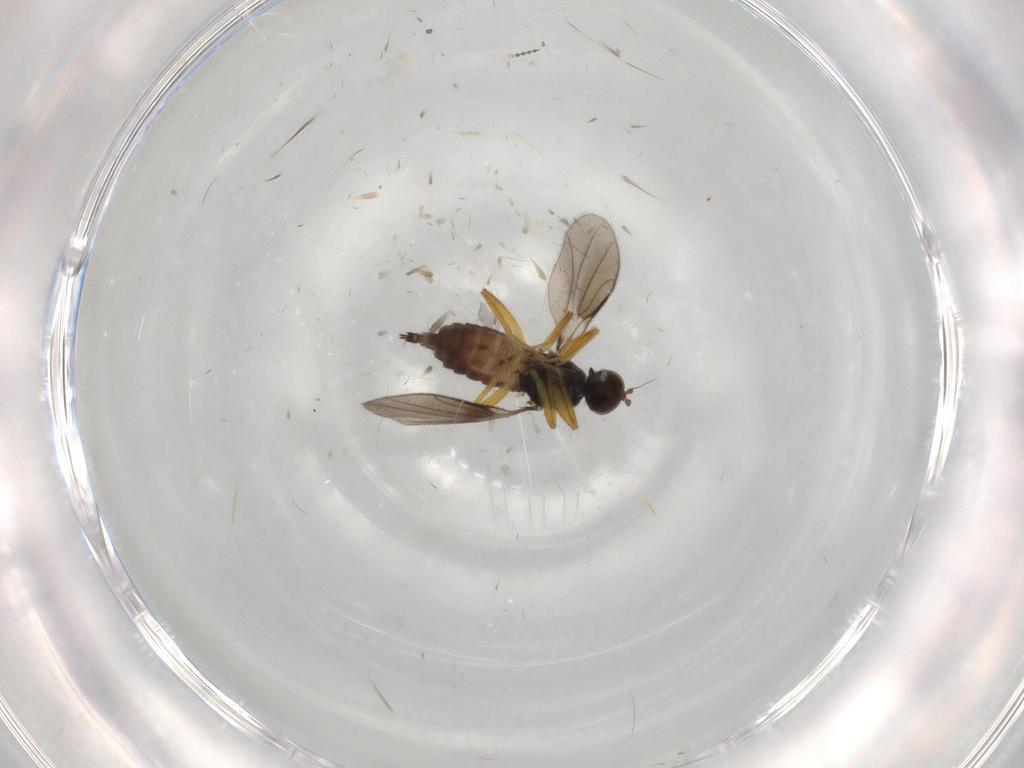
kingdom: Animalia
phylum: Arthropoda
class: Insecta
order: Diptera
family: Hybotidae
